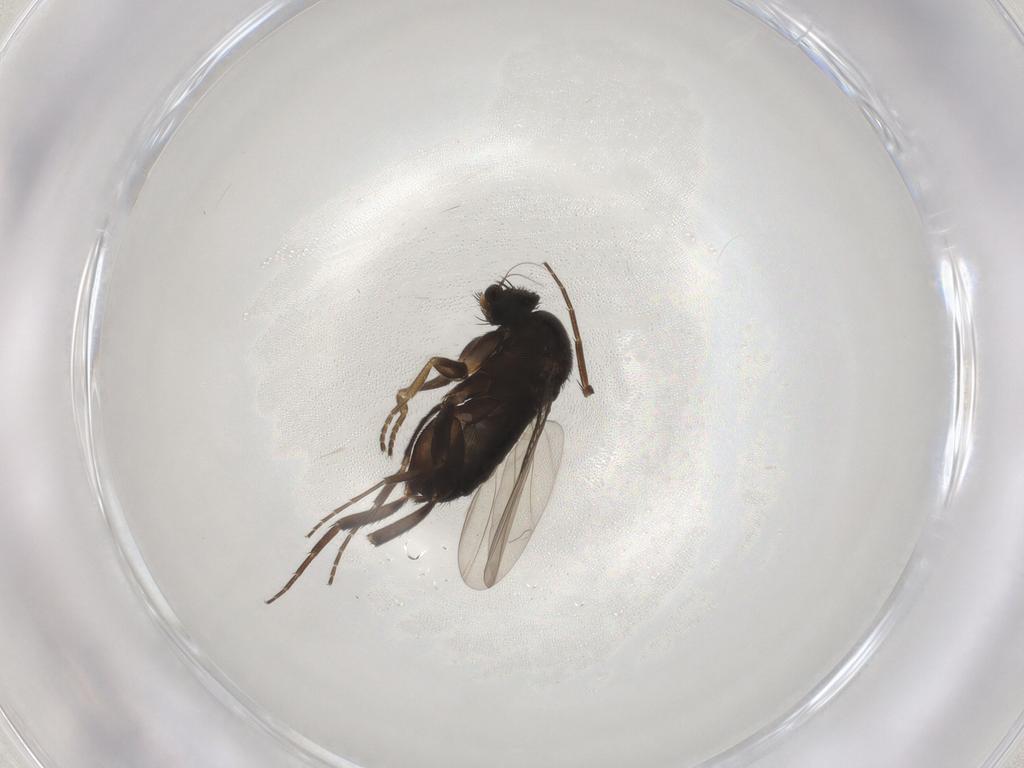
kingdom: Animalia
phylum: Arthropoda
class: Insecta
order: Diptera
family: Phoridae
